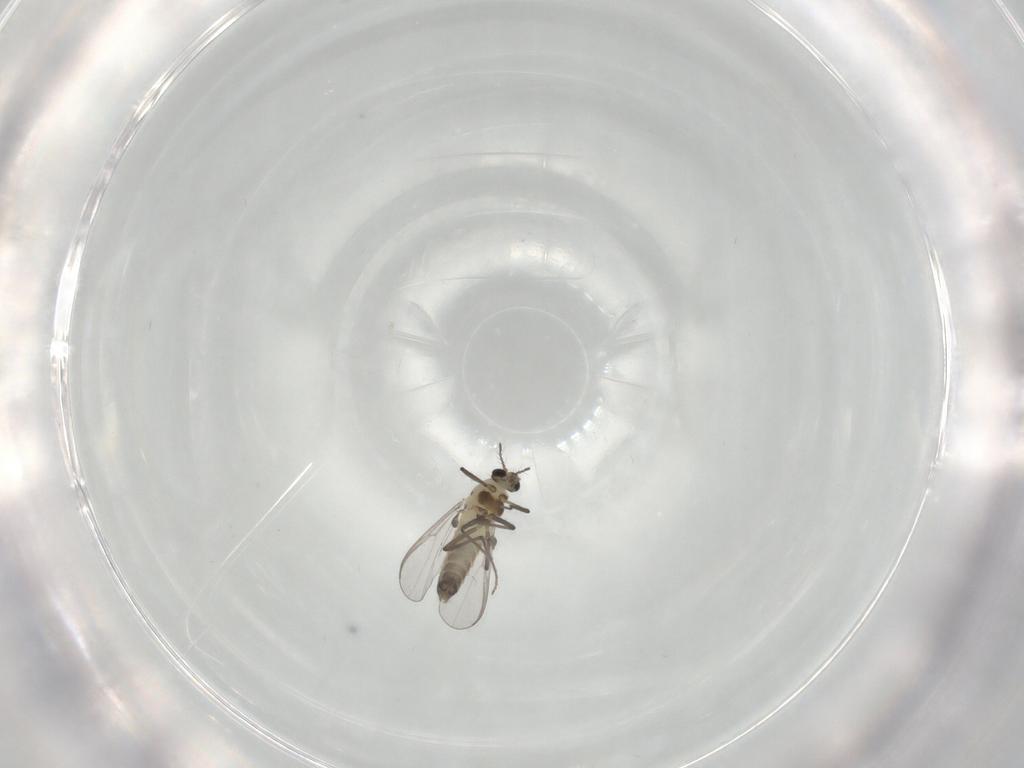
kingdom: Animalia
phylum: Arthropoda
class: Insecta
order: Diptera
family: Chironomidae
